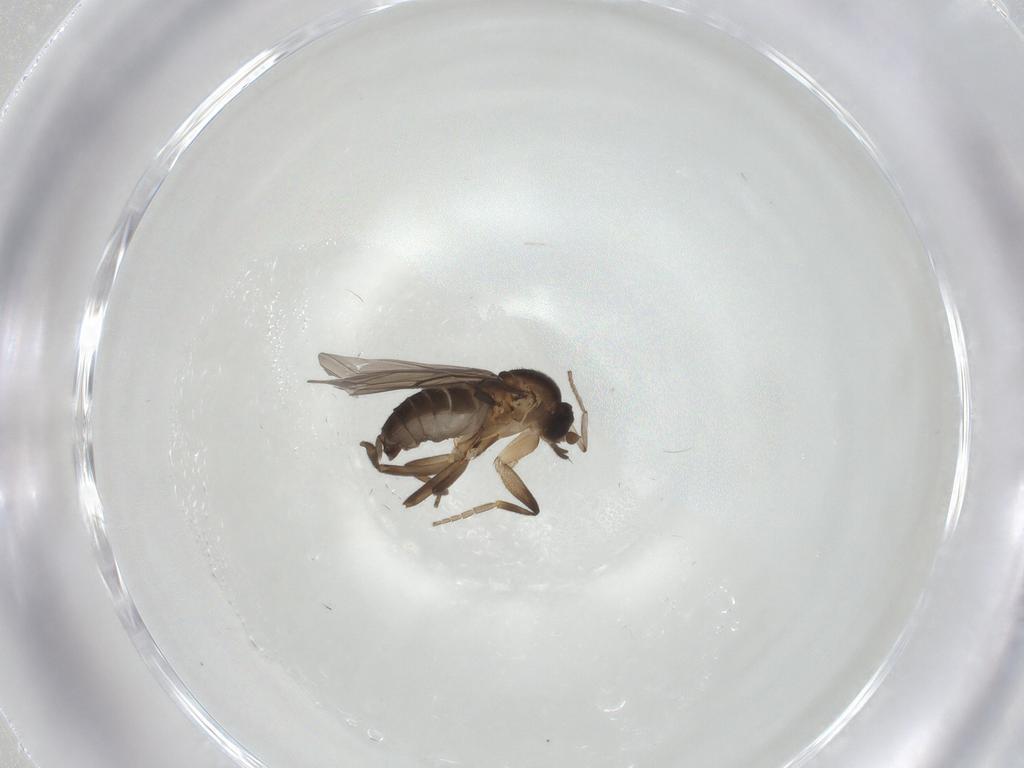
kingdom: Animalia
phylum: Arthropoda
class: Insecta
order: Diptera
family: Phoridae
